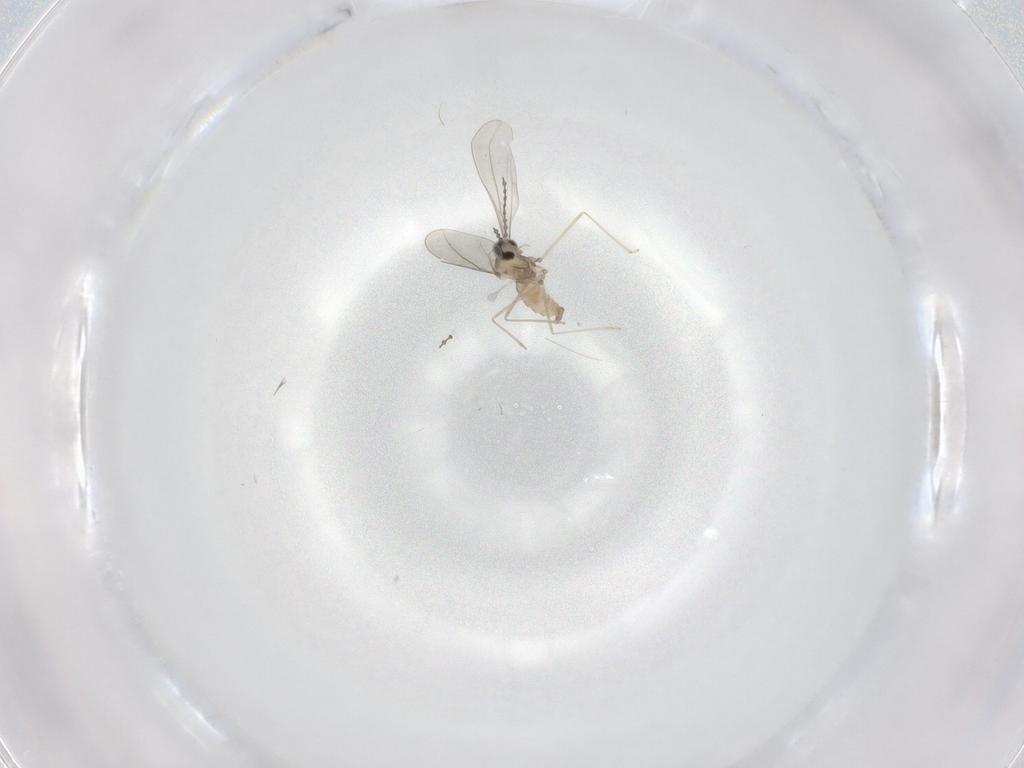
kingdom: Animalia
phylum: Arthropoda
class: Insecta
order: Diptera
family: Cecidomyiidae
